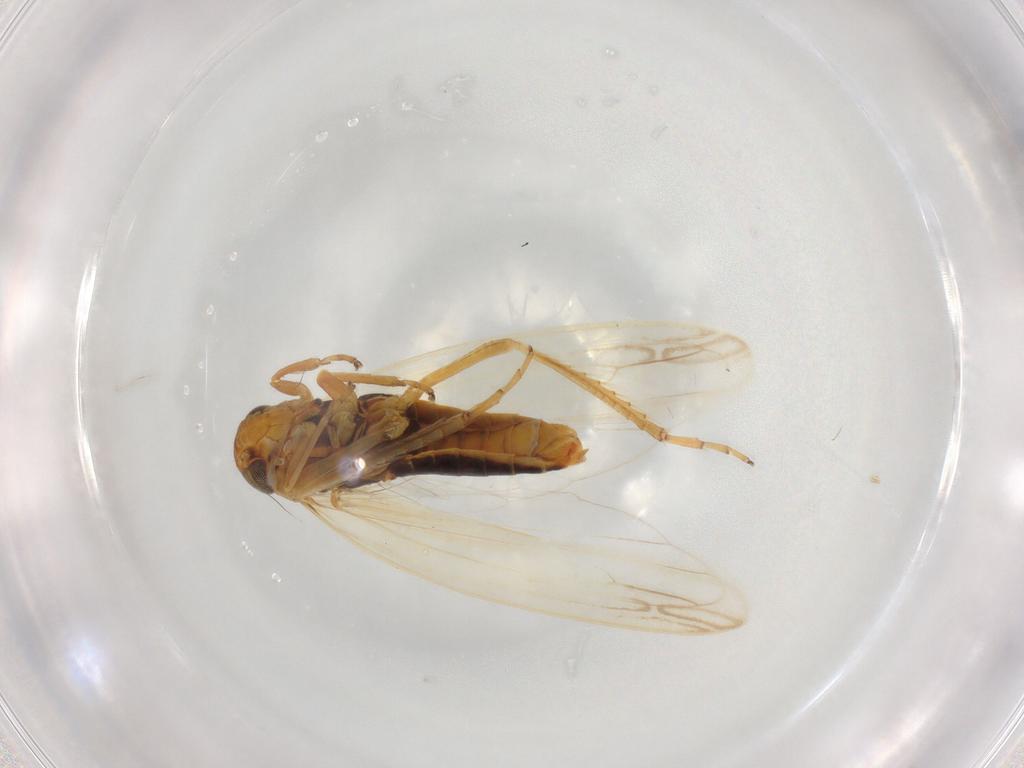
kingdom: Animalia
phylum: Arthropoda
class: Insecta
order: Hemiptera
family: Cicadellidae
